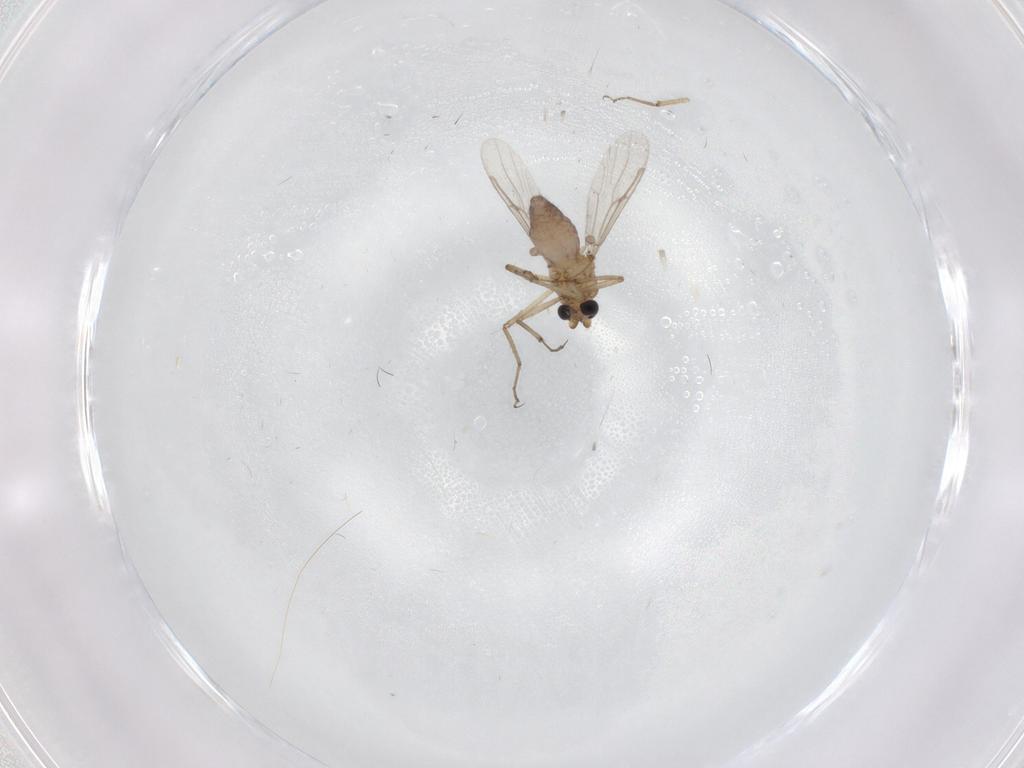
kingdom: Animalia
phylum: Arthropoda
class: Insecta
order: Diptera
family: Ceratopogonidae
